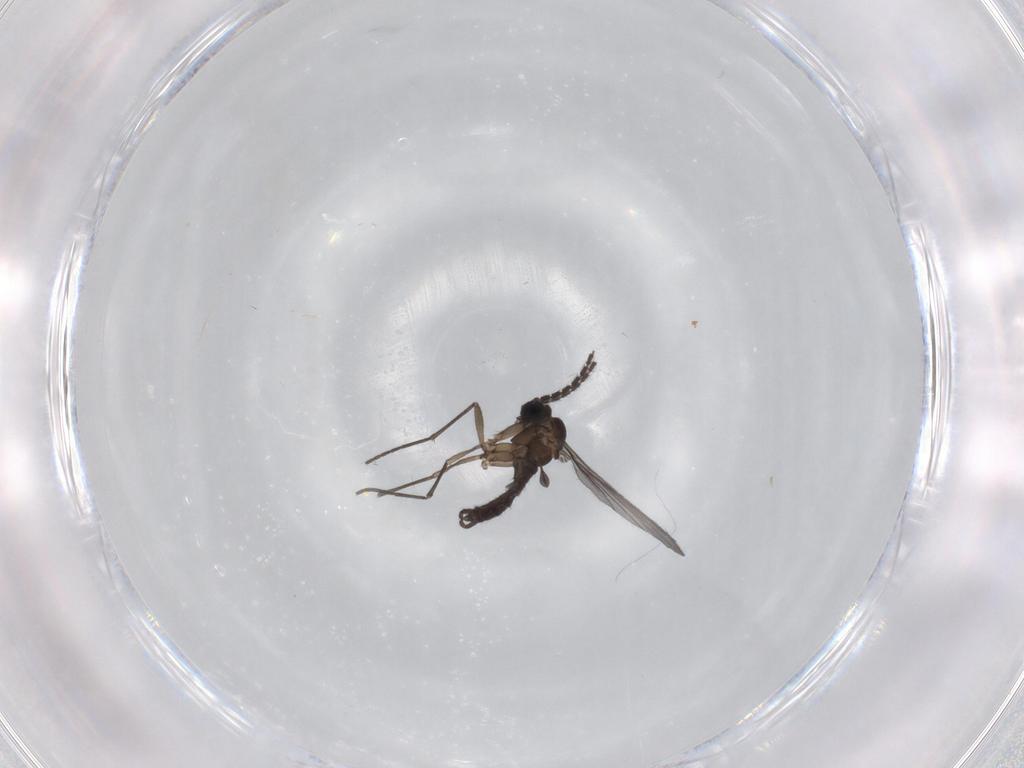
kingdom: Animalia
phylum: Arthropoda
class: Insecta
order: Diptera
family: Sciaridae
